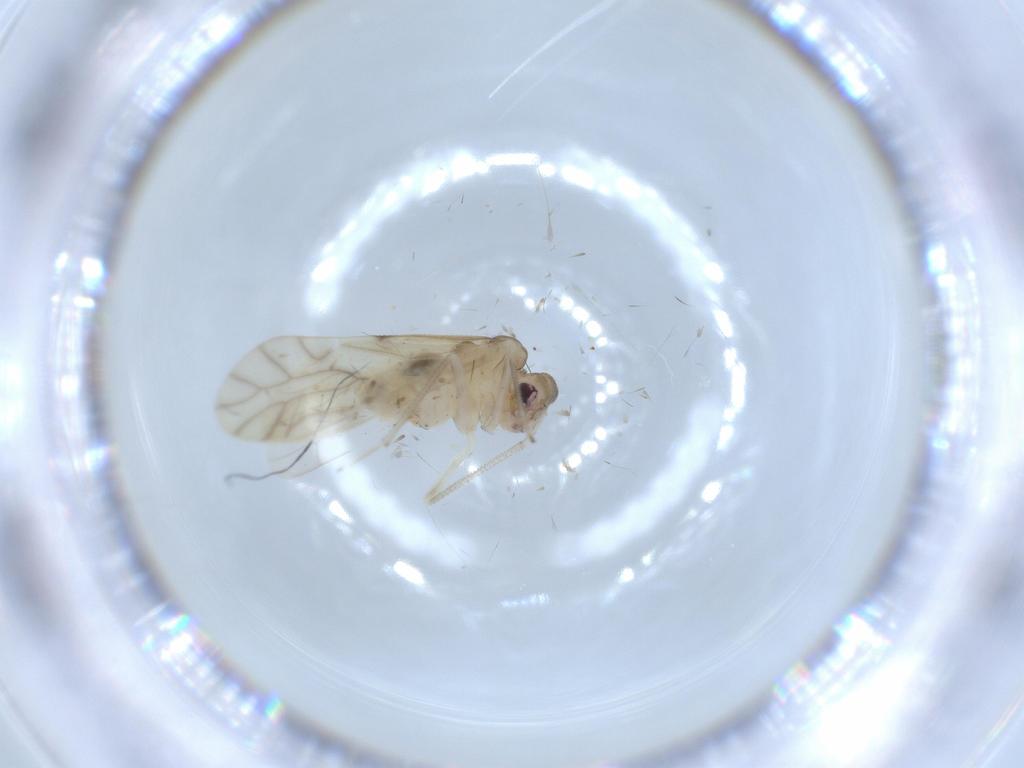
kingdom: Animalia
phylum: Arthropoda
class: Insecta
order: Psocodea
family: Caeciliusidae
